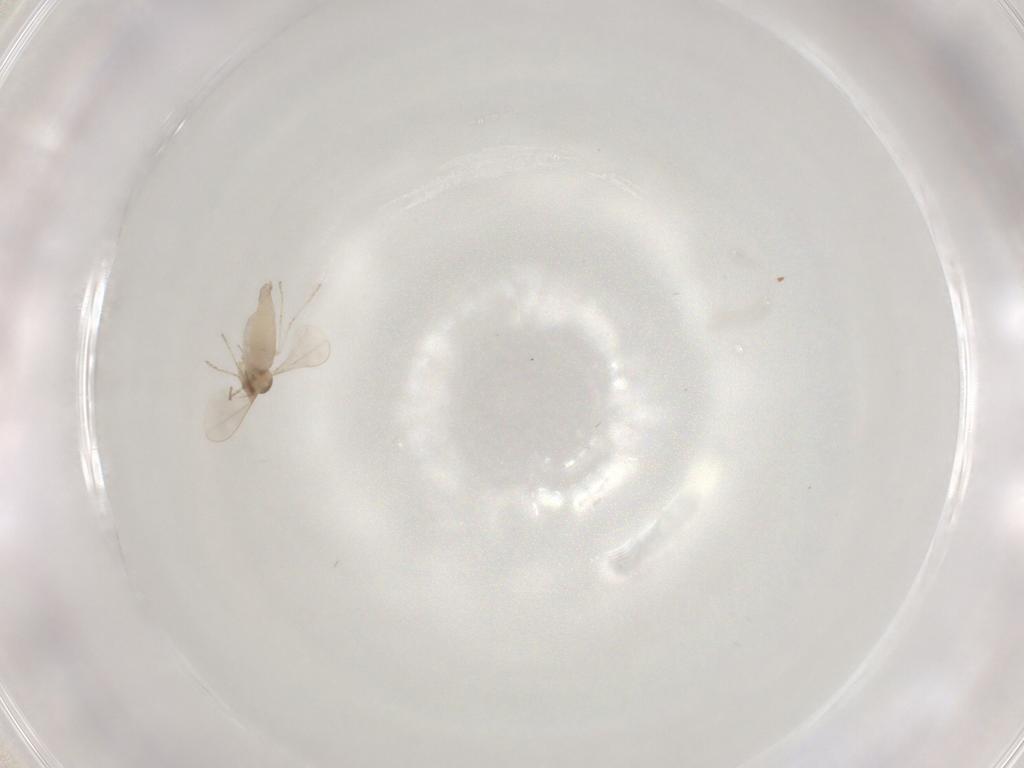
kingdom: Animalia
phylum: Arthropoda
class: Insecta
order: Diptera
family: Cecidomyiidae
